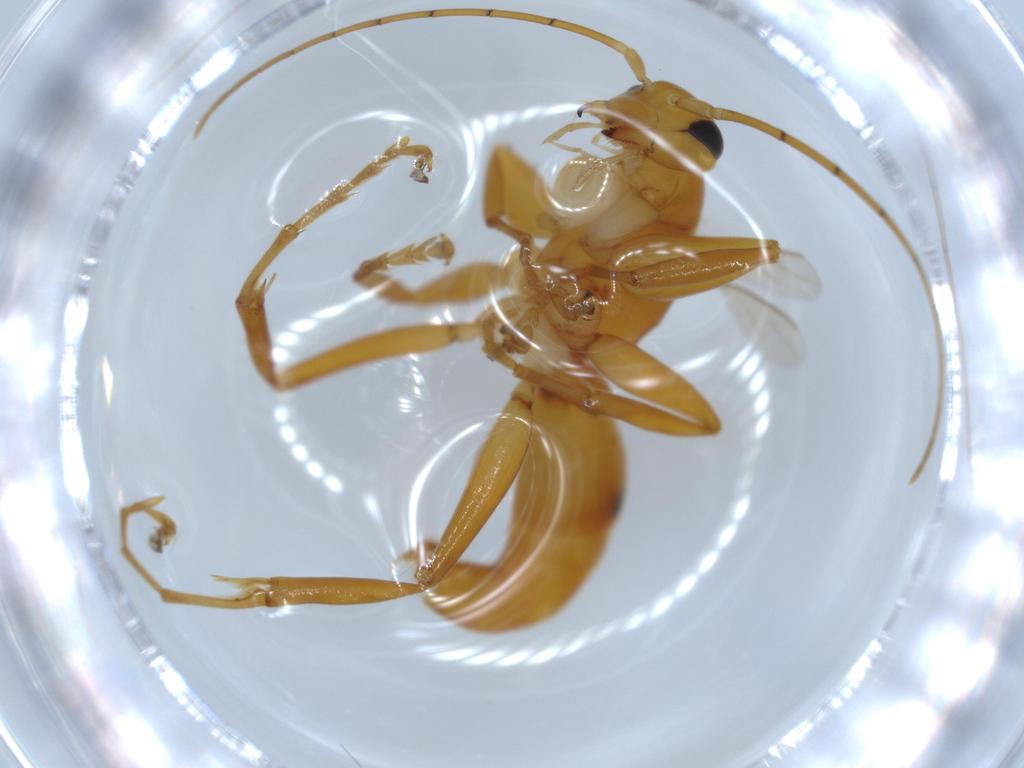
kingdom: Animalia
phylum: Arthropoda
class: Insecta
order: Hymenoptera
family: Rhopalosomatidae
